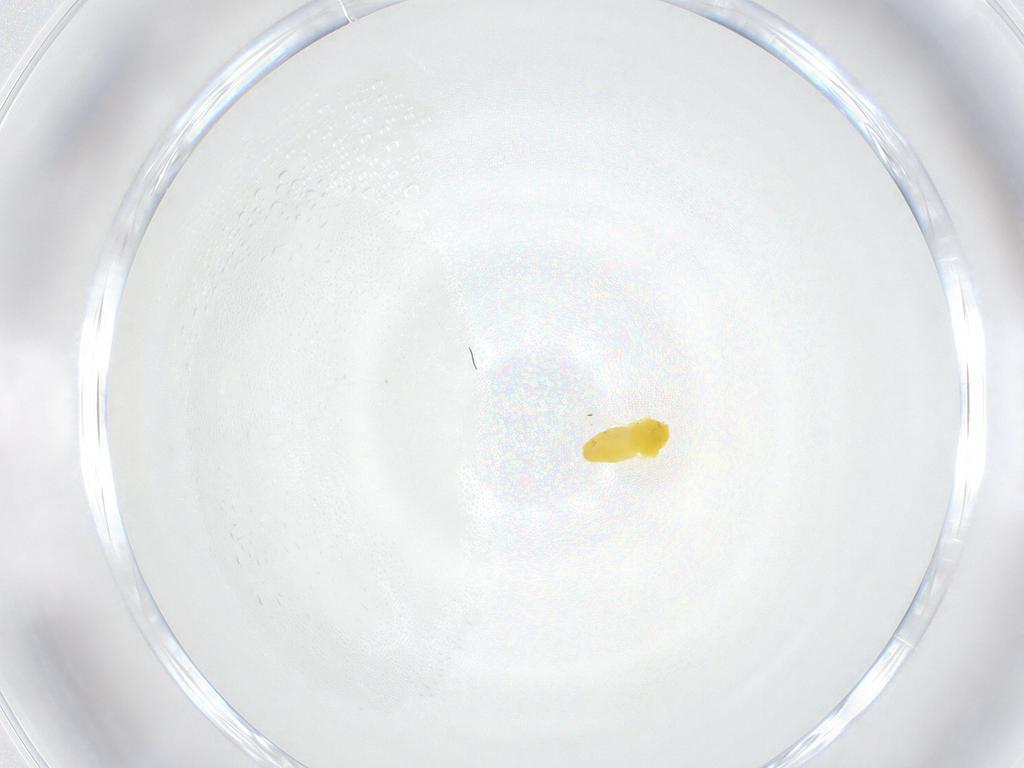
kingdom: Animalia
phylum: Arthropoda
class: Insecta
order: Hemiptera
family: Aleyrodidae
